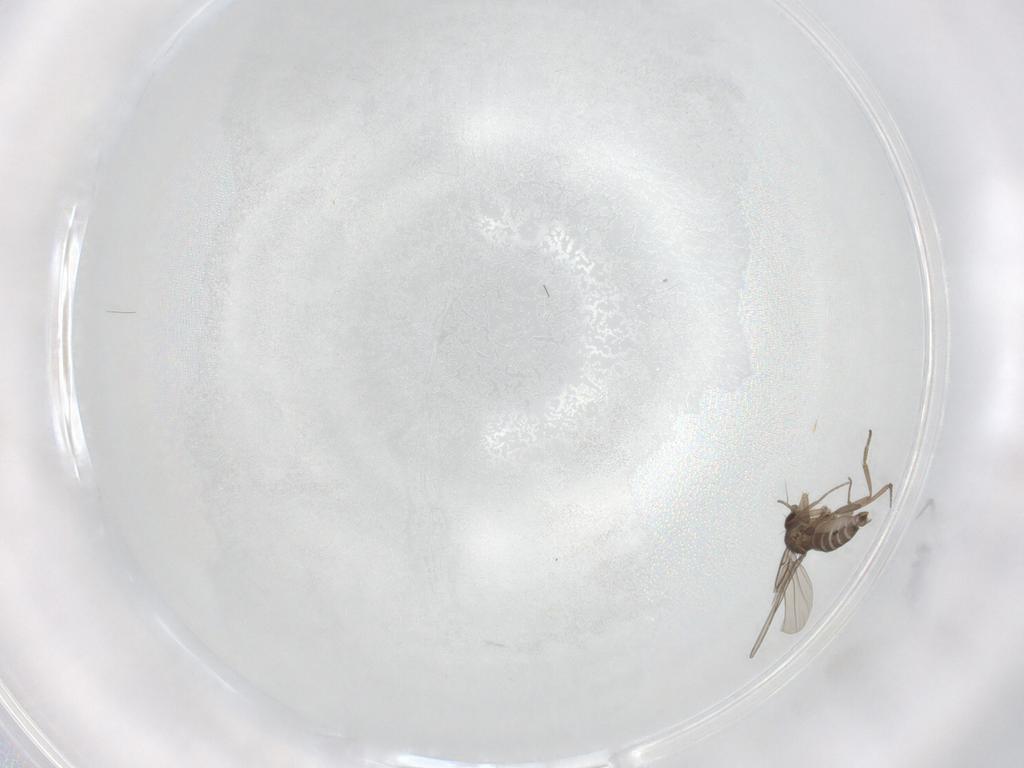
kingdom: Animalia
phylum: Arthropoda
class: Insecta
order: Diptera
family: Phoridae
